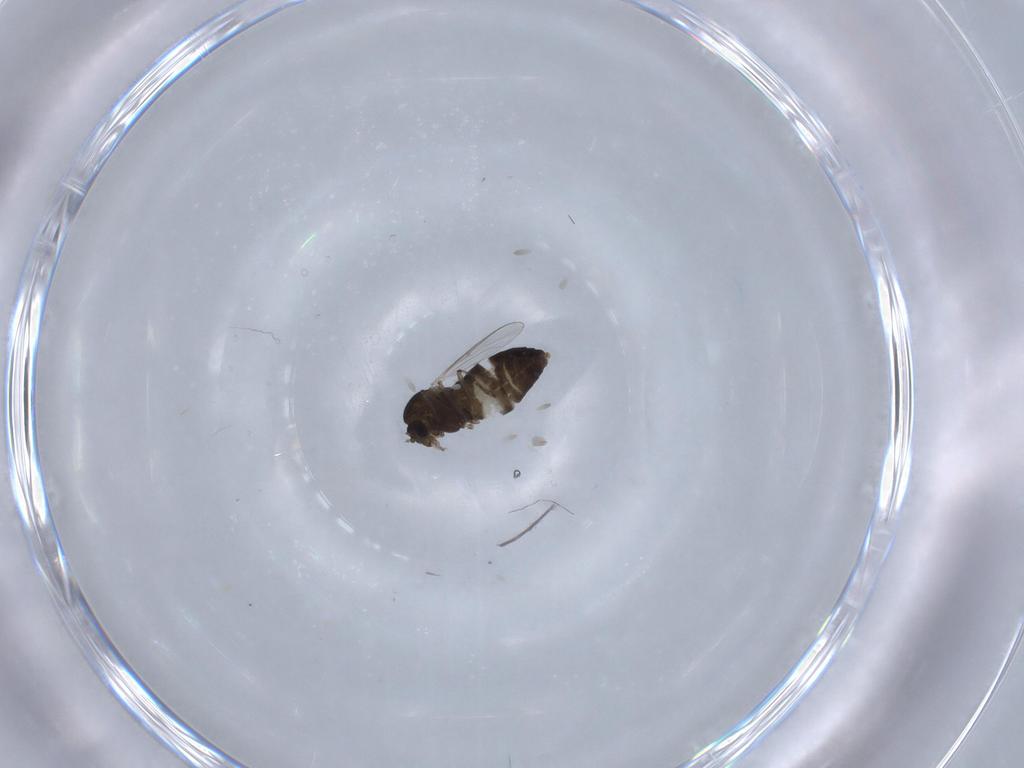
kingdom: Animalia
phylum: Arthropoda
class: Insecta
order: Diptera
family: Chironomidae
